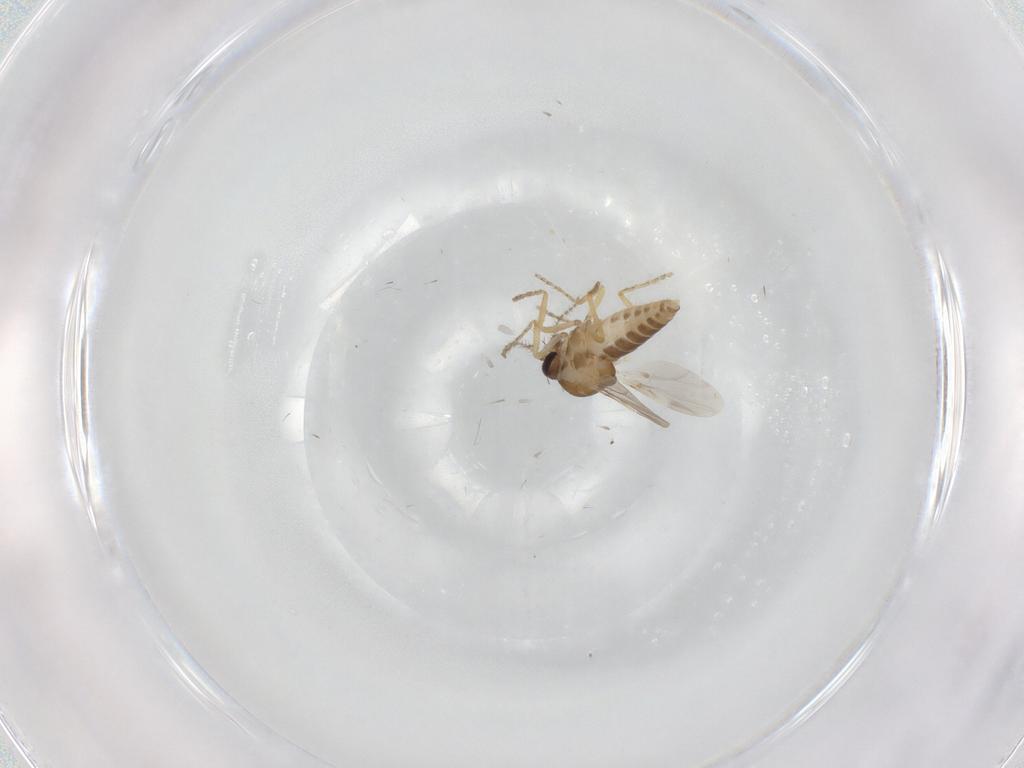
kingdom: Animalia
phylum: Arthropoda
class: Insecta
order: Diptera
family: Ceratopogonidae
